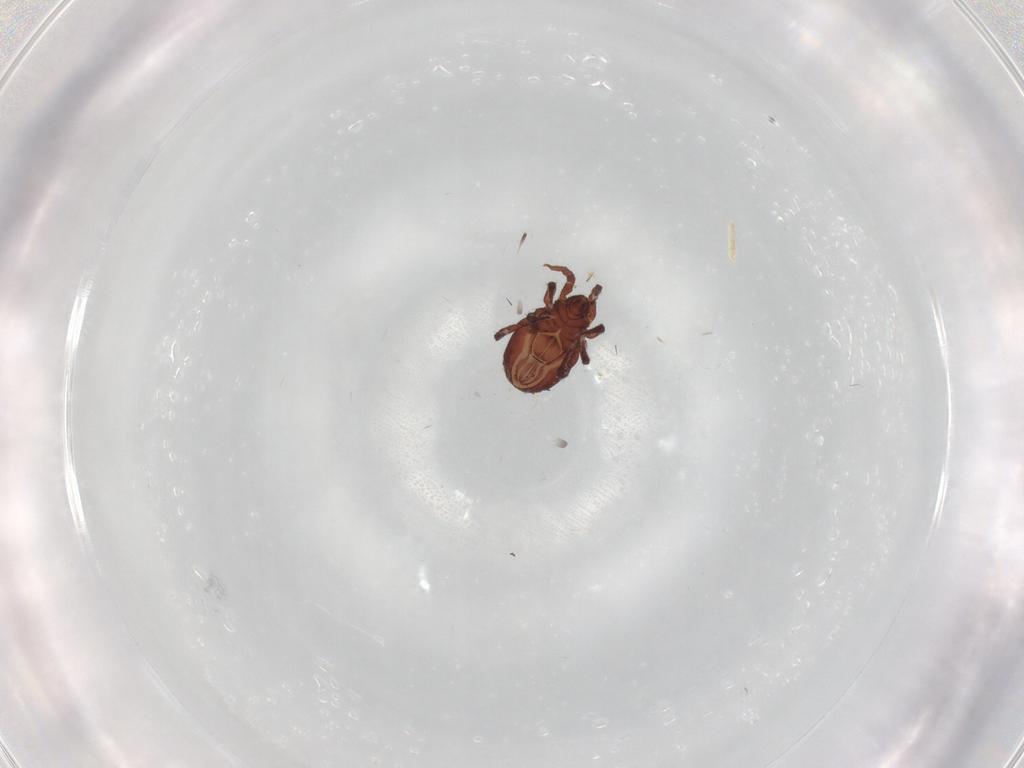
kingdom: Animalia
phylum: Arthropoda
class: Arachnida
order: Sarcoptiformes
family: Nothridae
